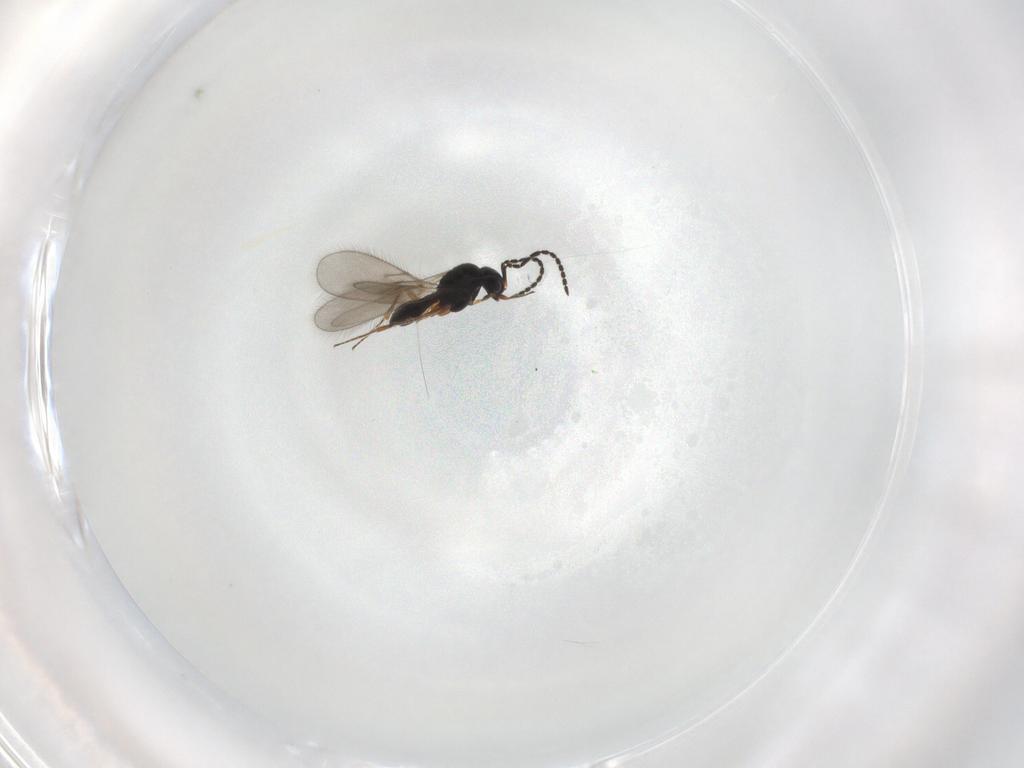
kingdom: Animalia
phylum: Arthropoda
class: Insecta
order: Hymenoptera
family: Scelionidae
